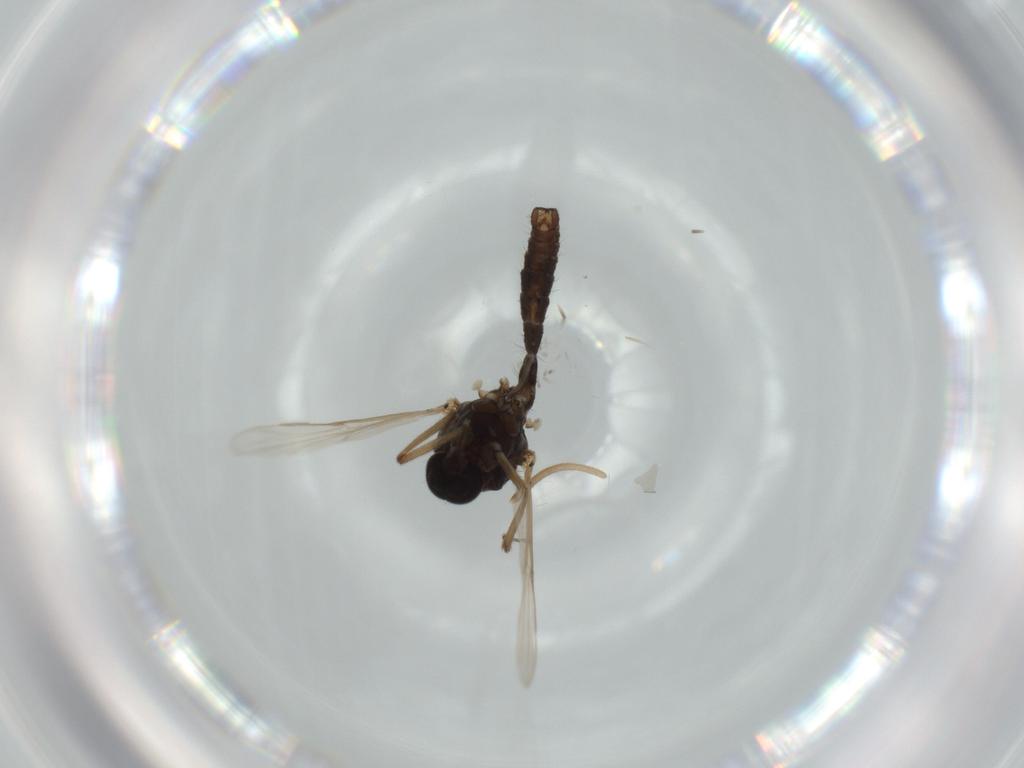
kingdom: Animalia
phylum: Arthropoda
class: Insecta
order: Diptera
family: Ceratopogonidae
